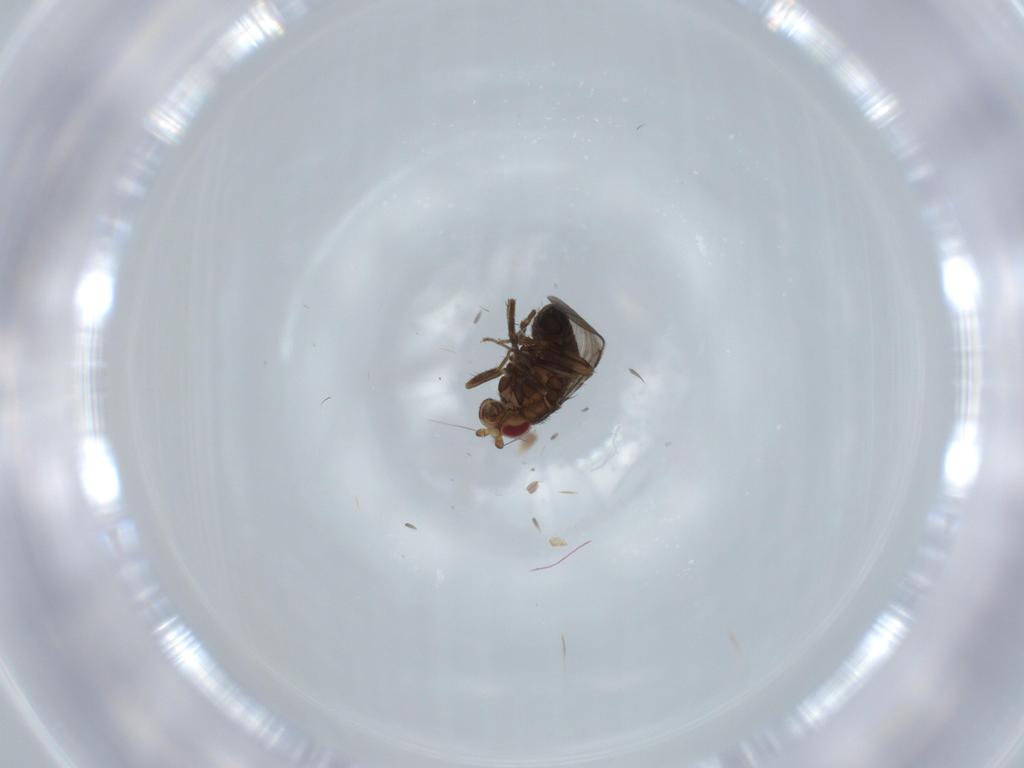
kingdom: Animalia
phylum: Arthropoda
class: Insecta
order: Diptera
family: Sphaeroceridae
